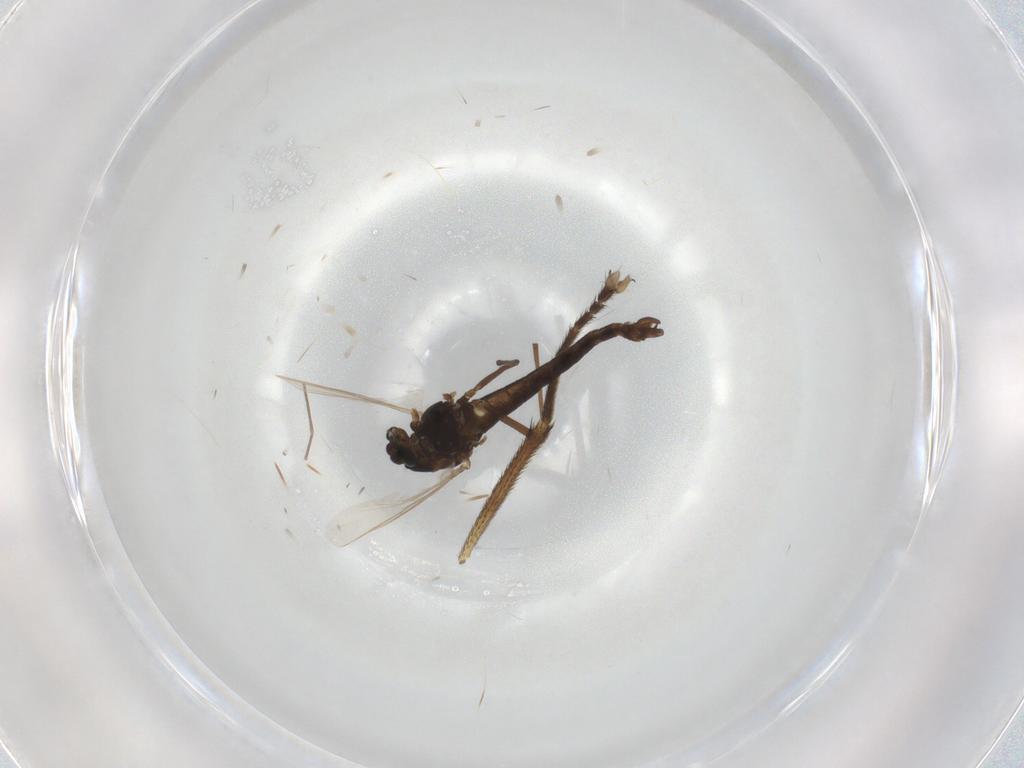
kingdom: Animalia
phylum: Arthropoda
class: Insecta
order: Diptera
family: Chironomidae
